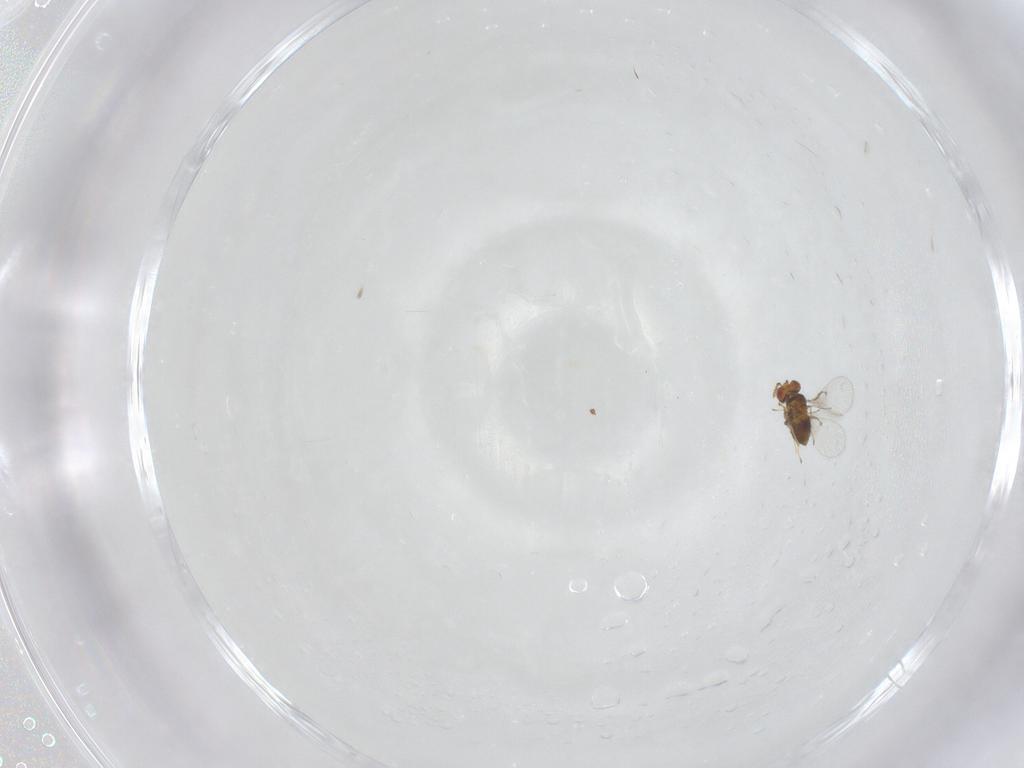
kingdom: Animalia
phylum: Arthropoda
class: Insecta
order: Hymenoptera
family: Trichogrammatidae
